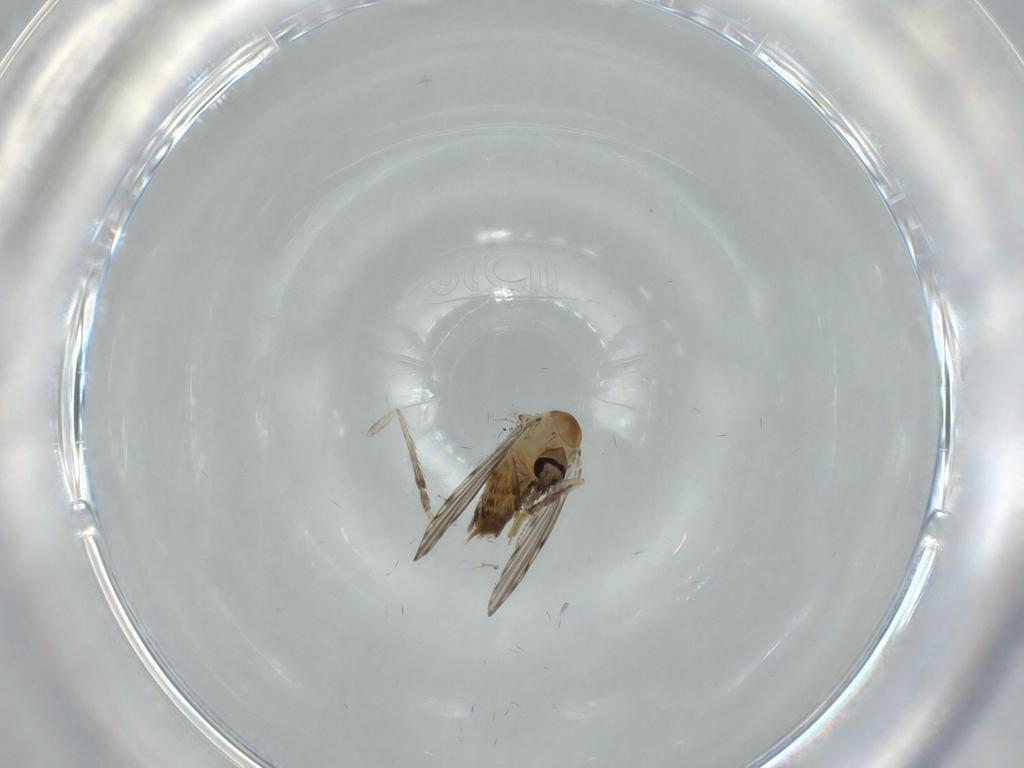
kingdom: Animalia
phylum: Arthropoda
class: Insecta
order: Diptera
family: Psychodidae
